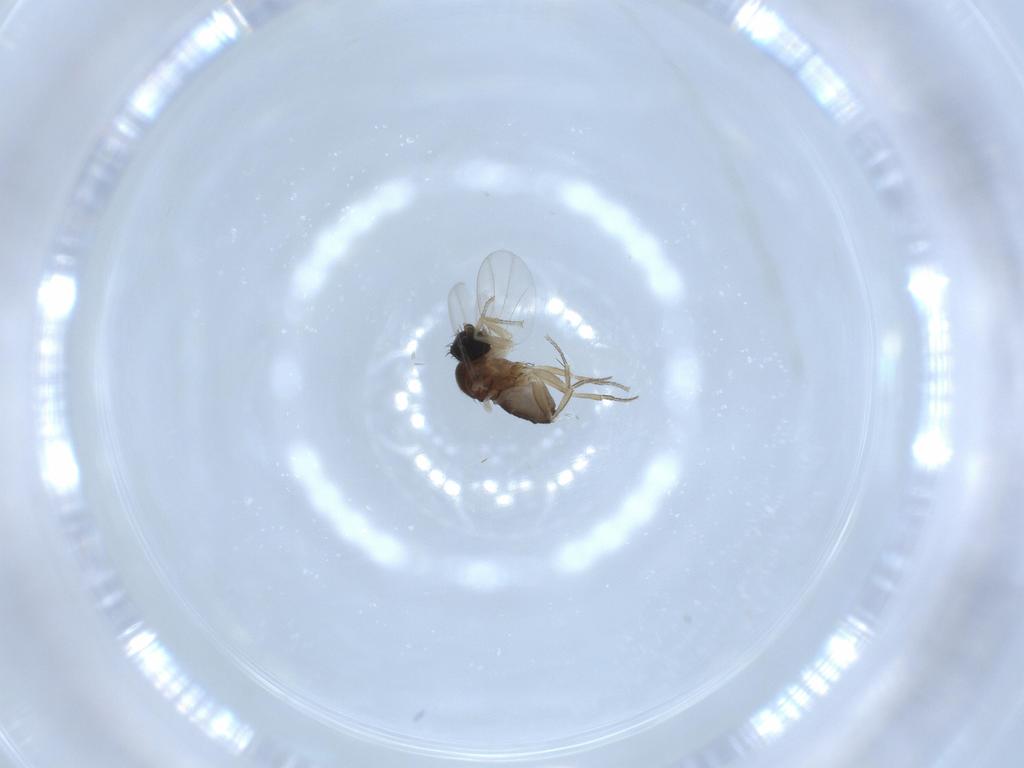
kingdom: Animalia
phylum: Arthropoda
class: Insecta
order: Diptera
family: Phoridae
